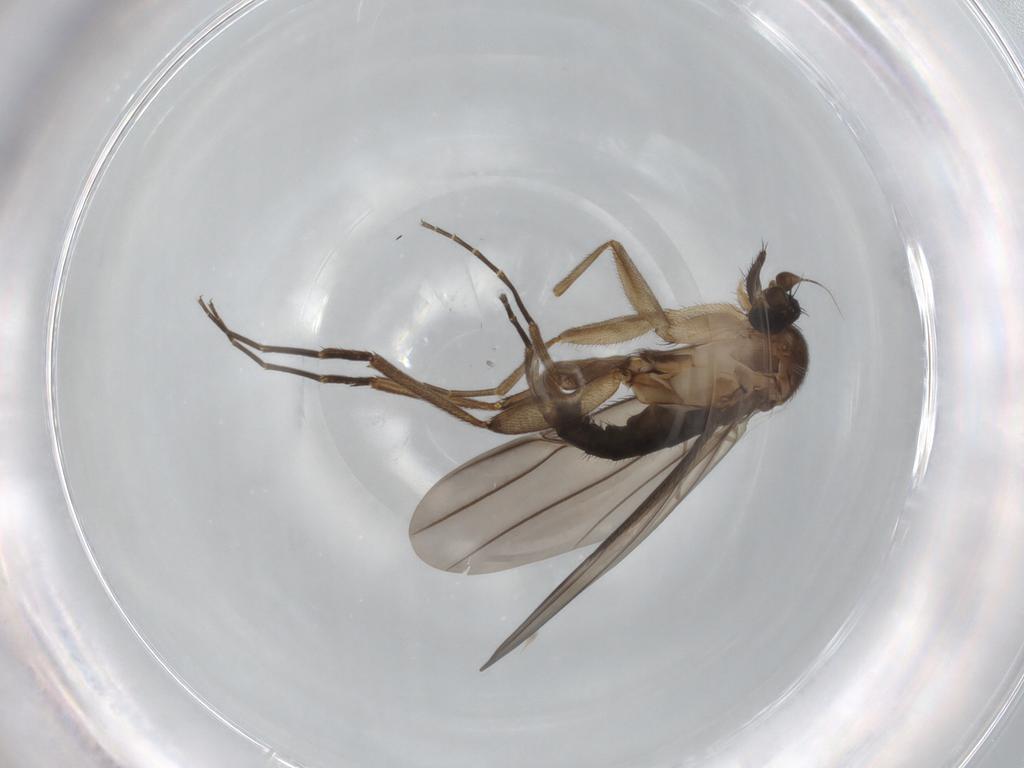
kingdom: Animalia
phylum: Arthropoda
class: Insecta
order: Diptera
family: Phoridae
